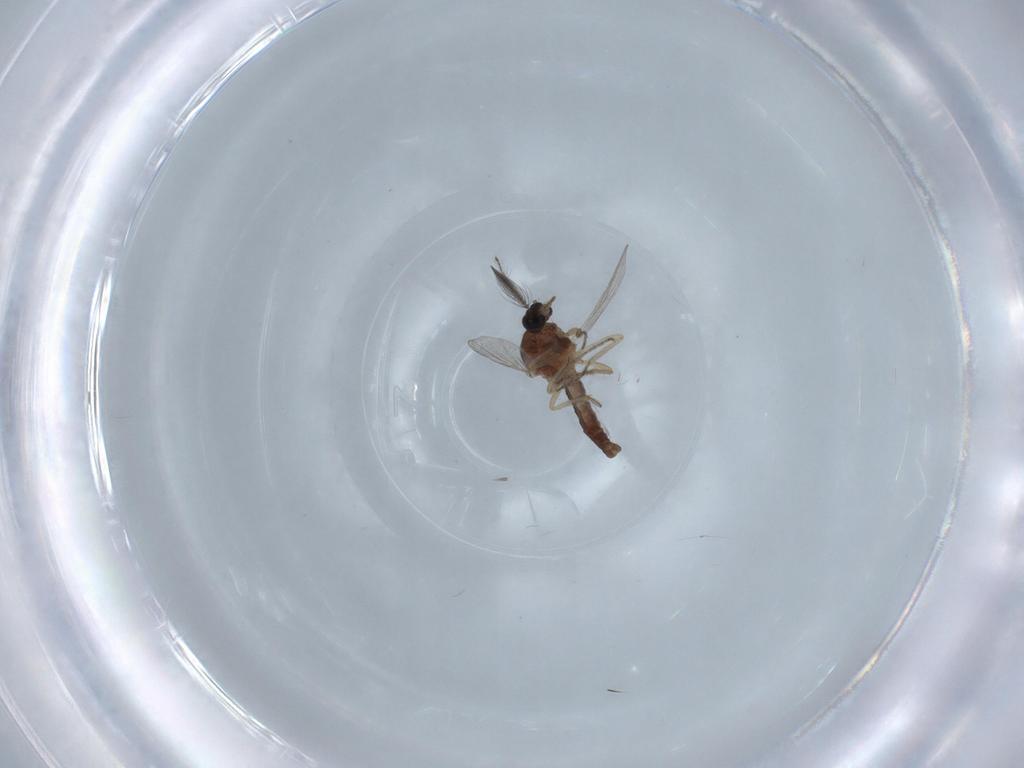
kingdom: Animalia
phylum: Arthropoda
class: Insecta
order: Diptera
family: Ceratopogonidae
